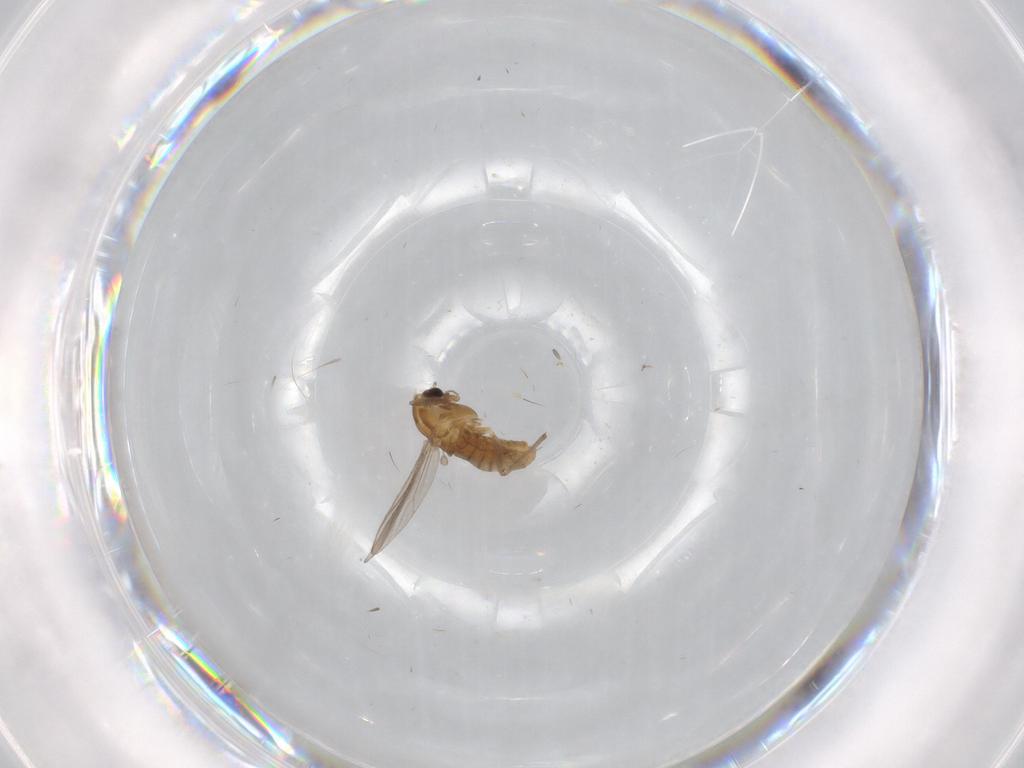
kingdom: Animalia
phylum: Arthropoda
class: Insecta
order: Diptera
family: Chironomidae
